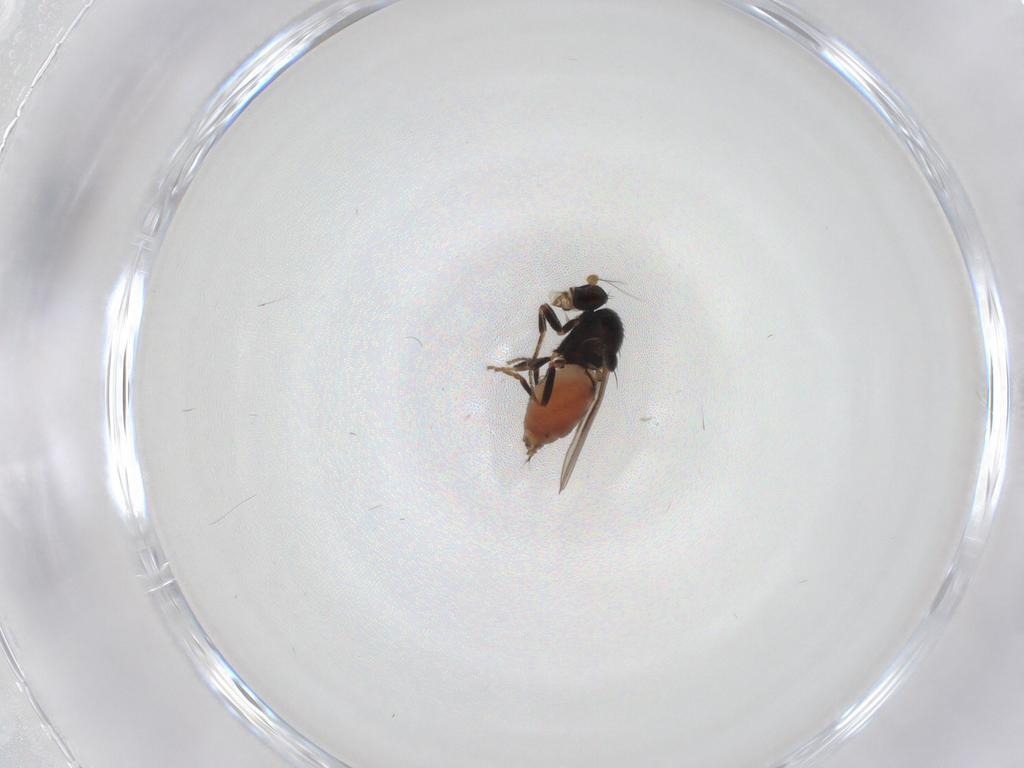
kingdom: Animalia
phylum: Arthropoda
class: Insecta
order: Diptera
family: Sphaeroceridae
